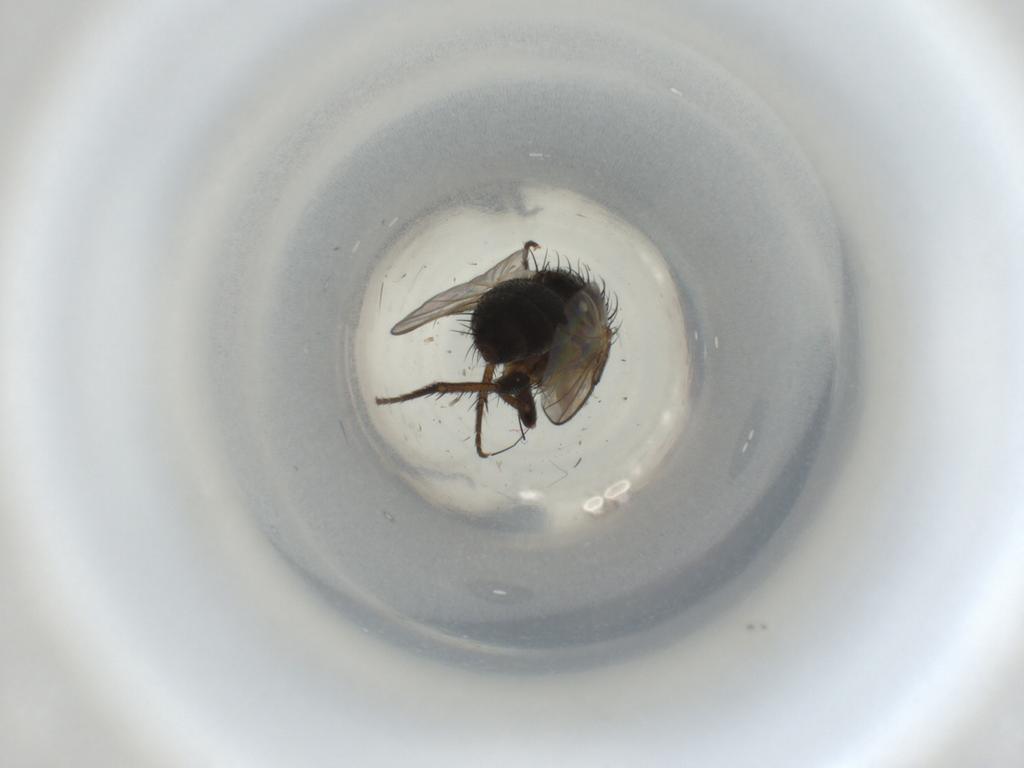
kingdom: Animalia
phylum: Arthropoda
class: Insecta
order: Diptera
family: Tachinidae
